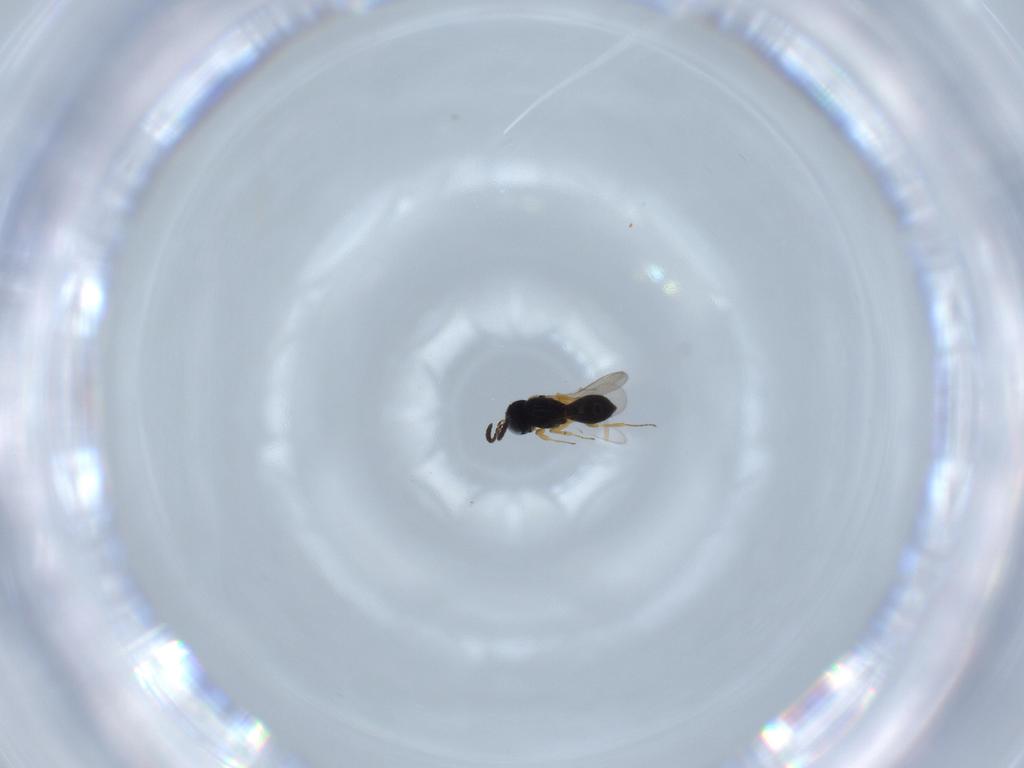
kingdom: Animalia
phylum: Arthropoda
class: Insecta
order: Hymenoptera
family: Scelionidae
